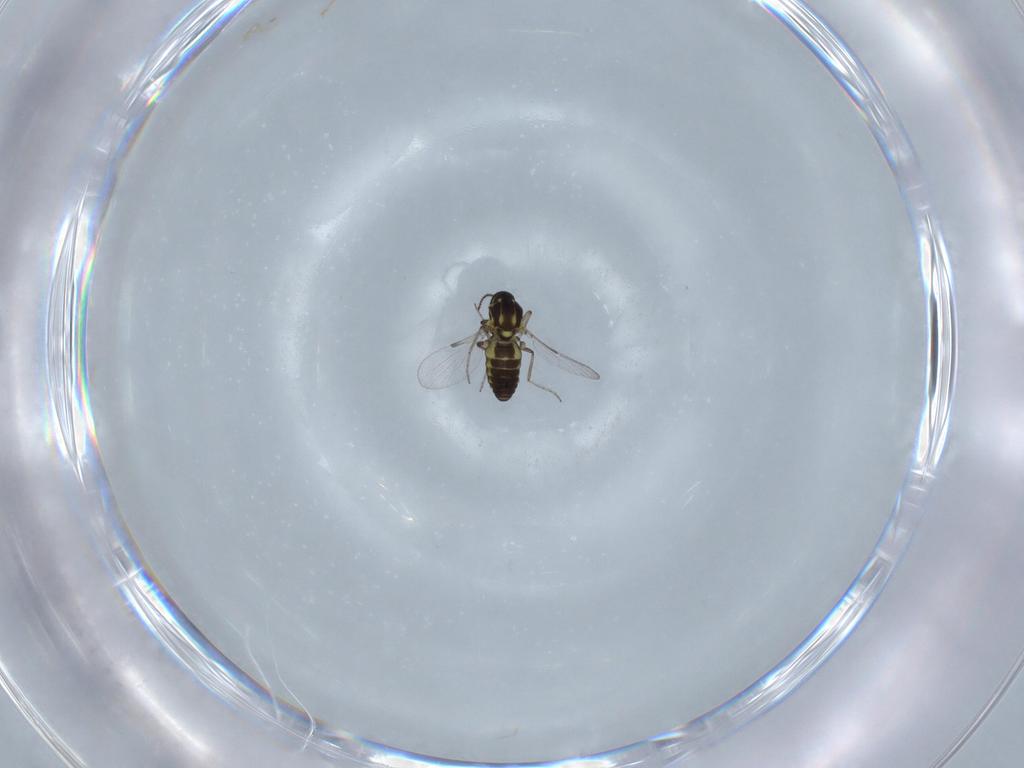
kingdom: Animalia
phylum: Arthropoda
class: Insecta
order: Diptera
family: Ceratopogonidae
